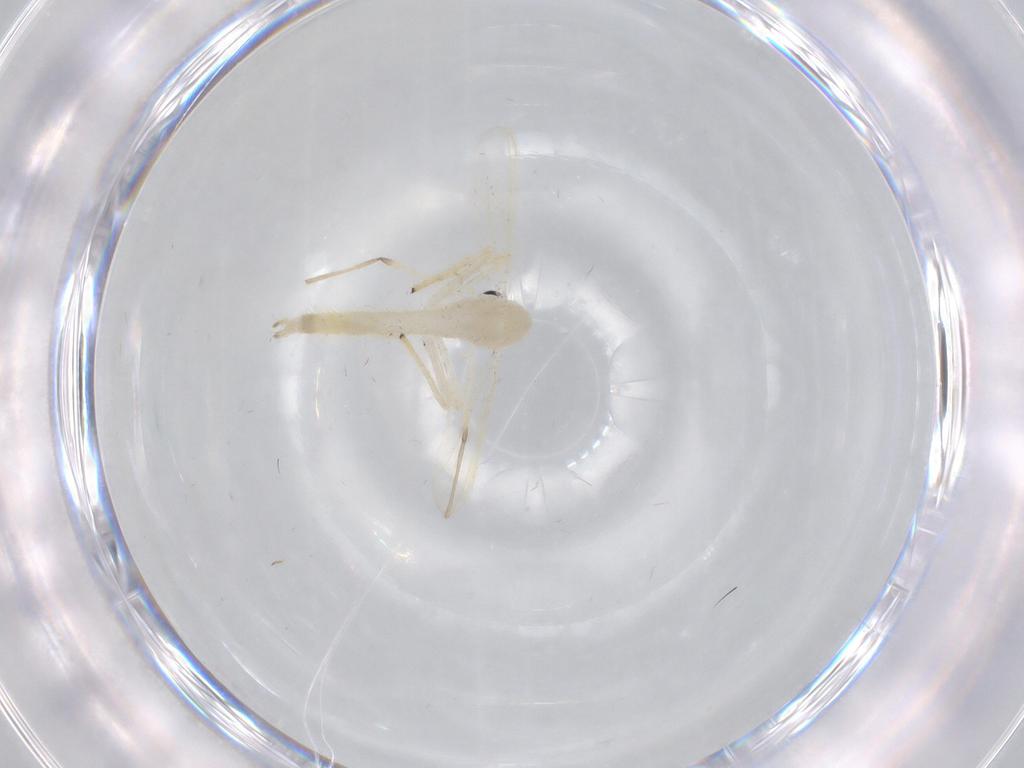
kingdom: Animalia
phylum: Arthropoda
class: Insecta
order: Diptera
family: Chironomidae
